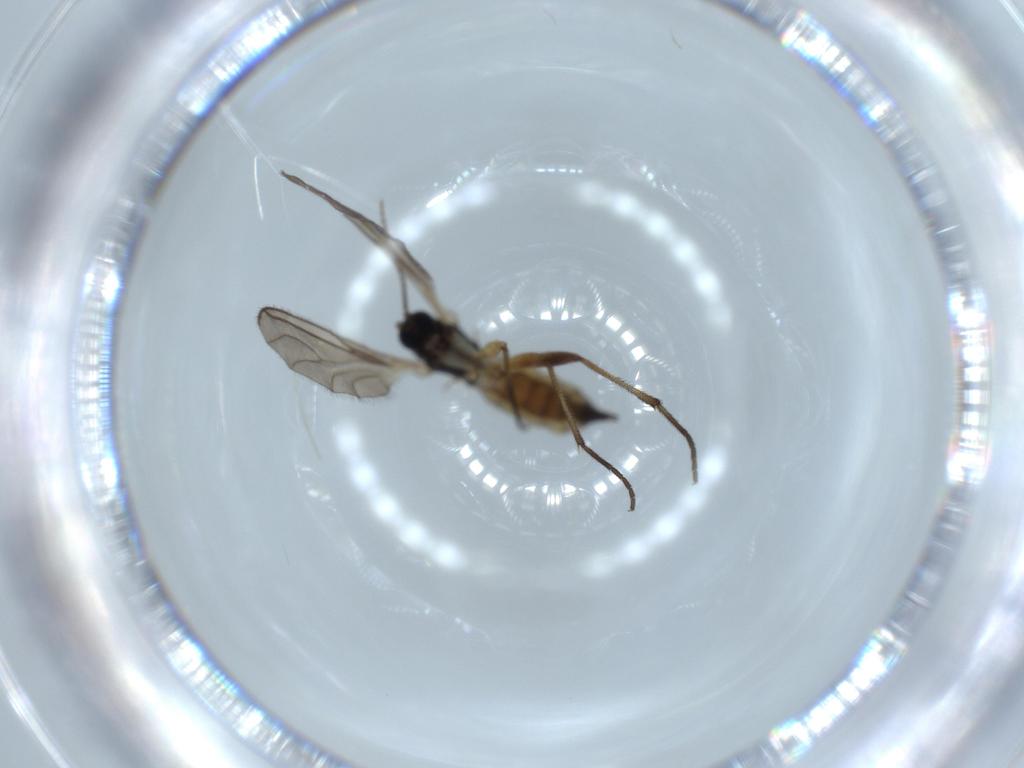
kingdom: Animalia
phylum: Arthropoda
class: Insecta
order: Diptera
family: Sciaridae
